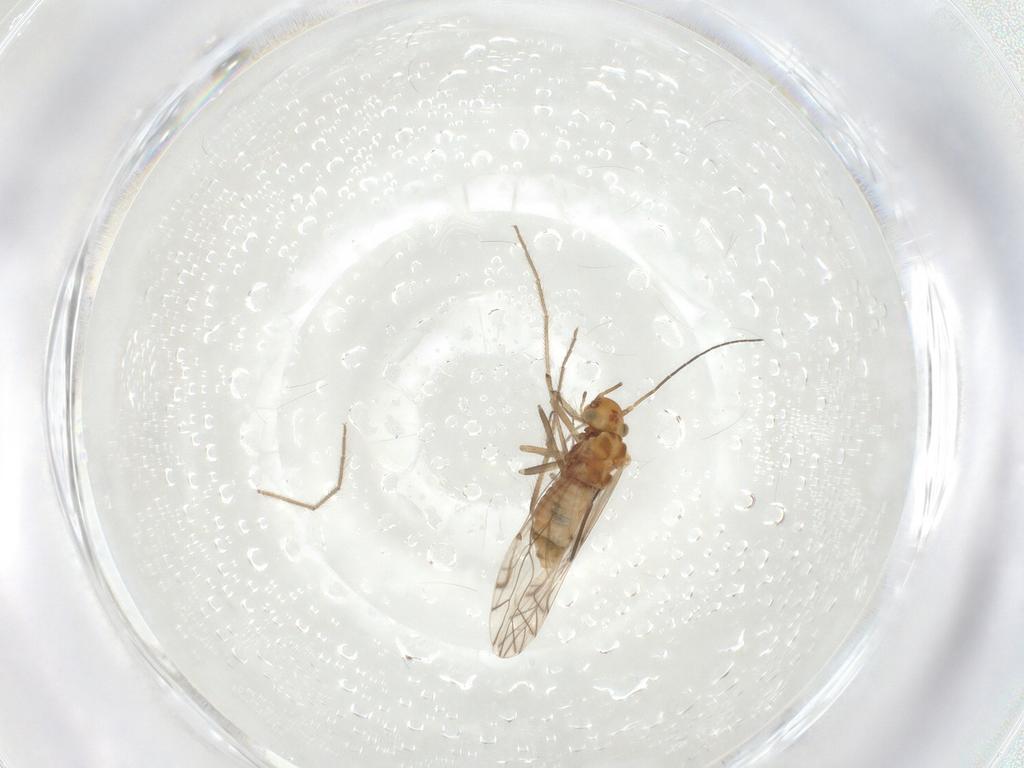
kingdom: Animalia
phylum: Arthropoda
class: Insecta
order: Psocodea
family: Lachesillidae
